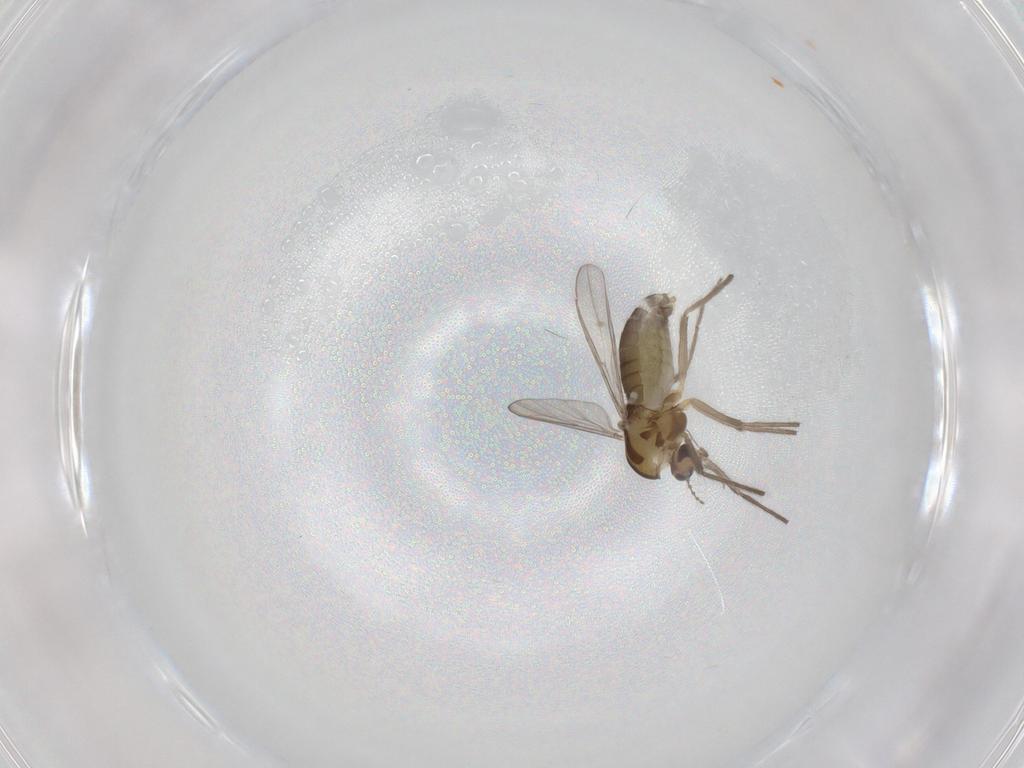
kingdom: Animalia
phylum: Arthropoda
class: Insecta
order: Diptera
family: Chironomidae
